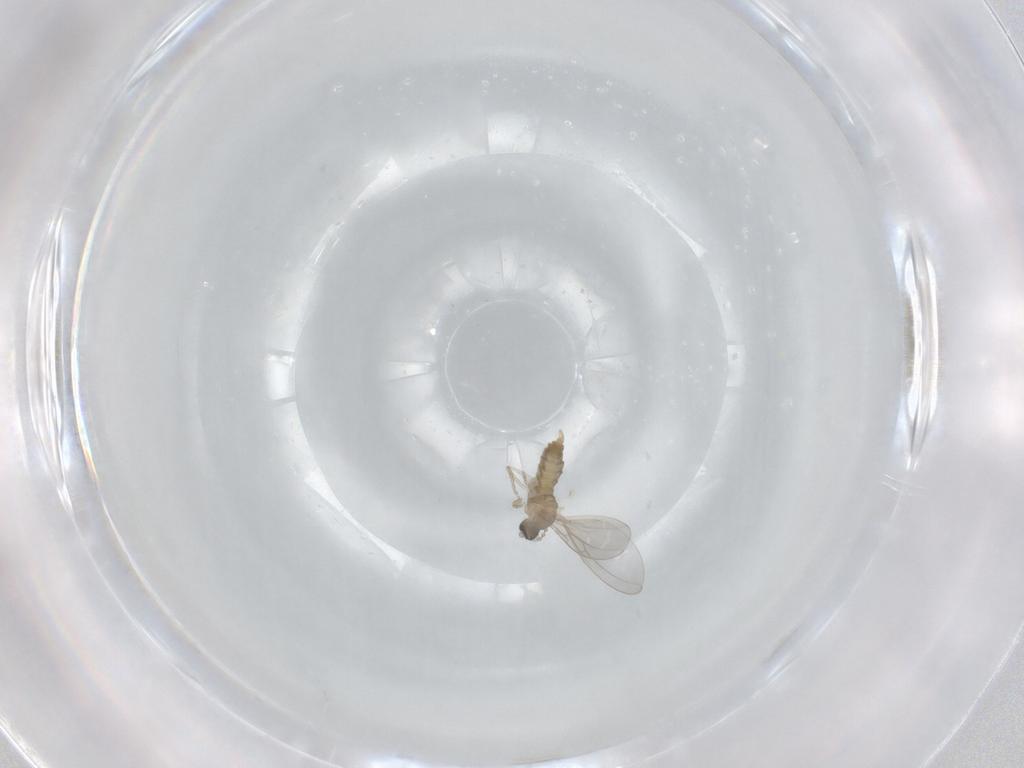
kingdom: Animalia
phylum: Arthropoda
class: Insecta
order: Diptera
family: Cecidomyiidae
